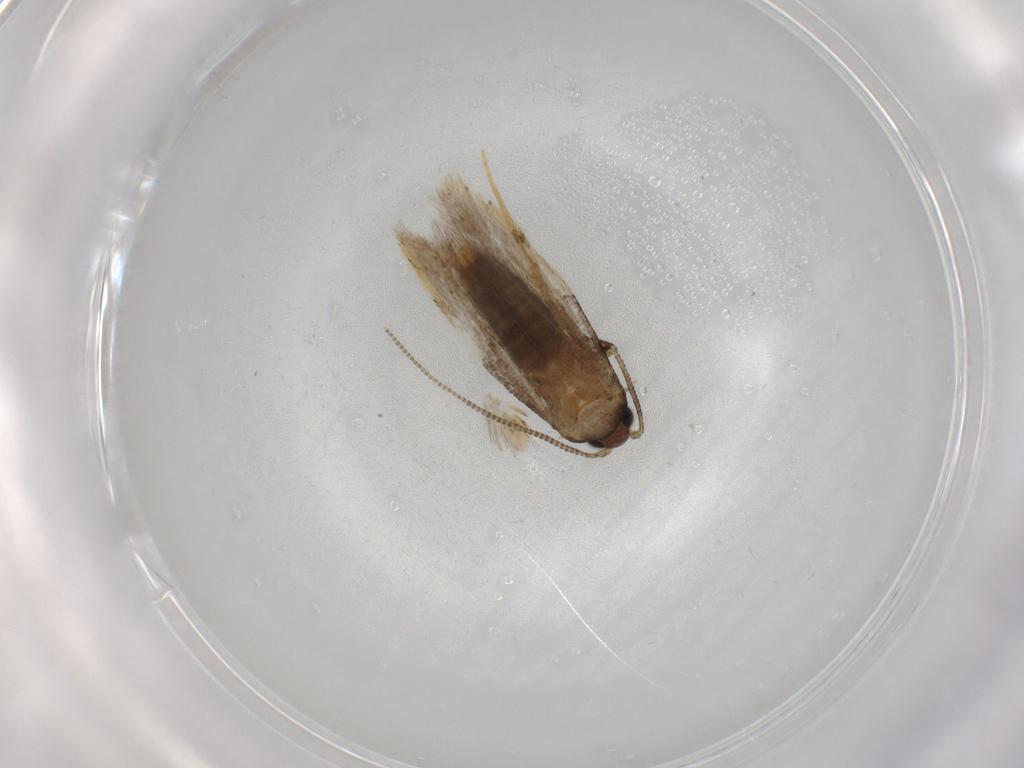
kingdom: Animalia
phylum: Arthropoda
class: Insecta
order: Lepidoptera
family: Tineidae
